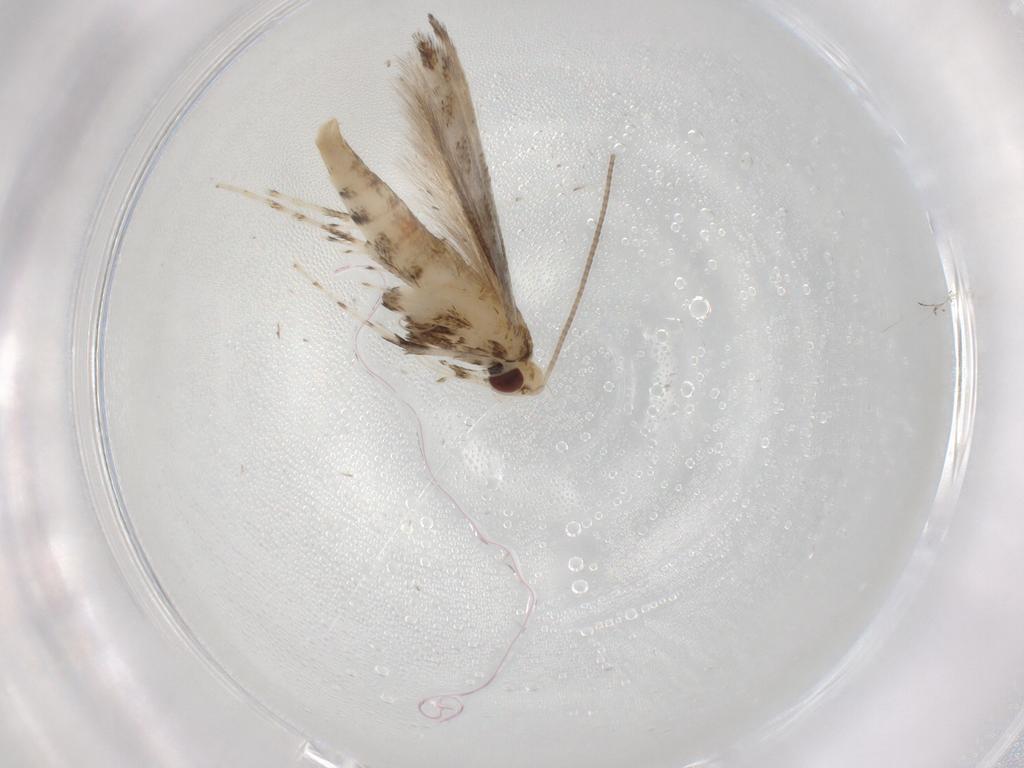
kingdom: Animalia
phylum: Arthropoda
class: Insecta
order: Lepidoptera
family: Gracillariidae
